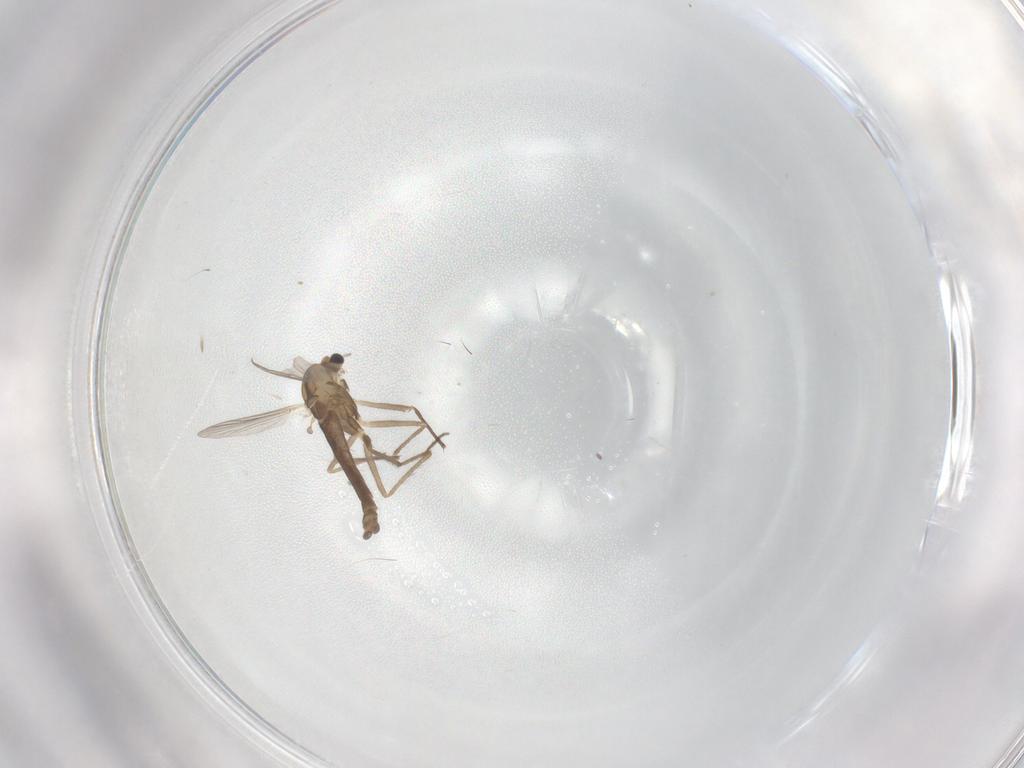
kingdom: Animalia
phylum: Arthropoda
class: Insecta
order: Diptera
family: Chironomidae
